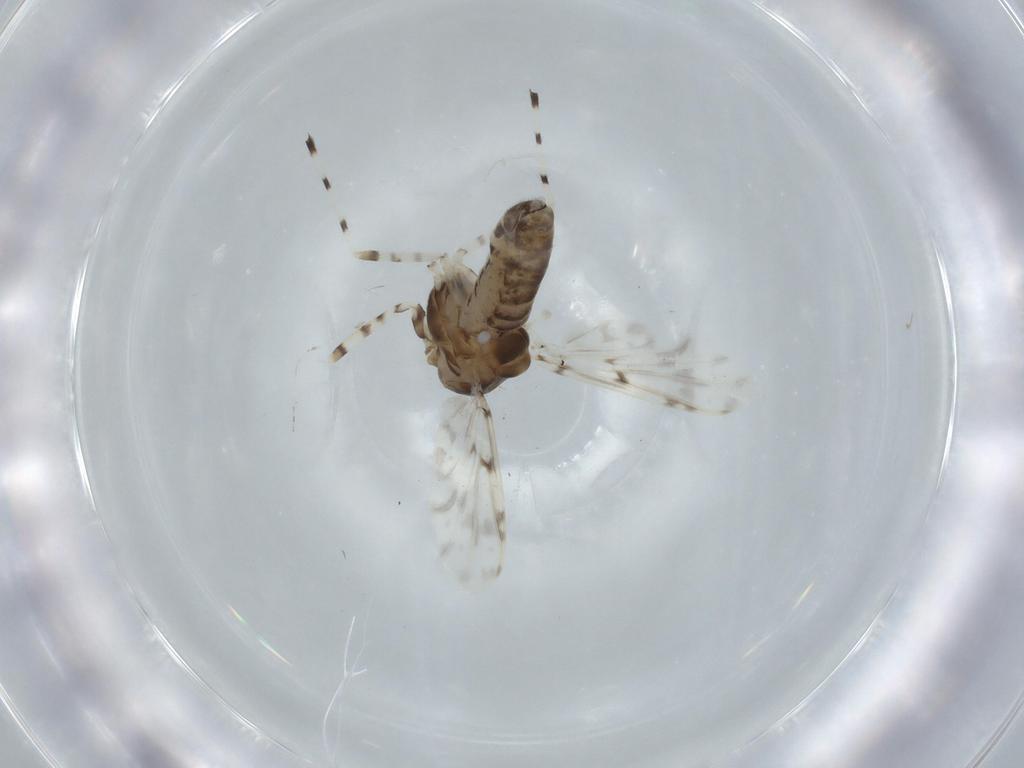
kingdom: Animalia
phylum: Arthropoda
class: Insecta
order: Diptera
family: Chironomidae
